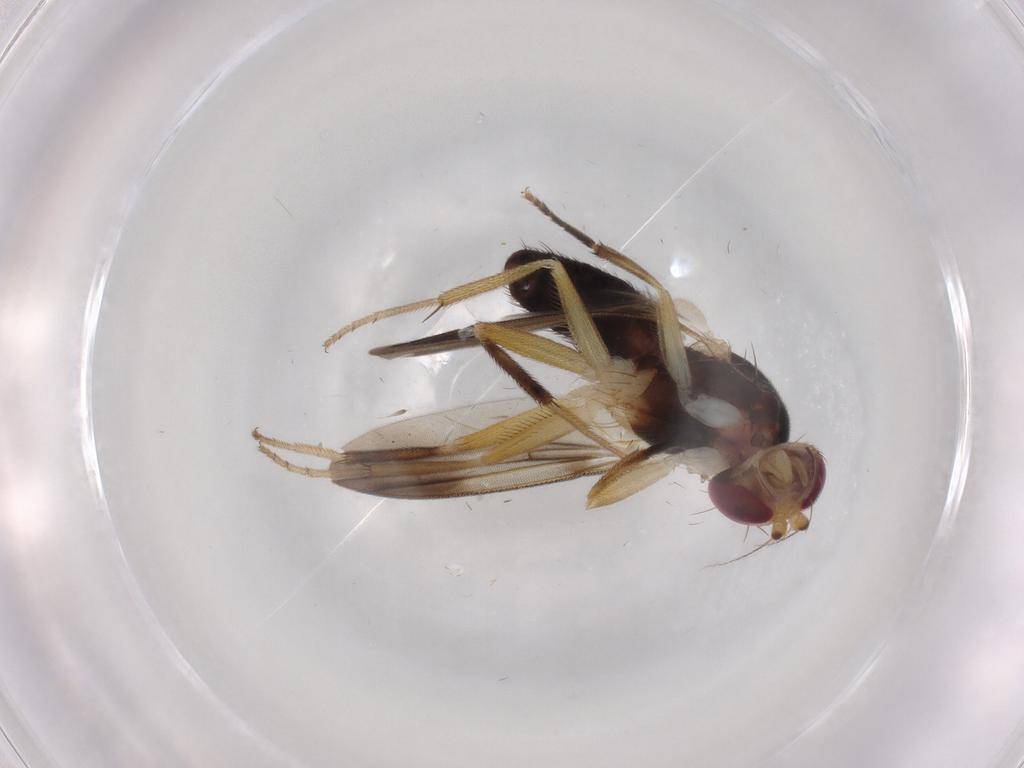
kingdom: Animalia
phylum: Arthropoda
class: Insecta
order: Diptera
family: Clusiidae
